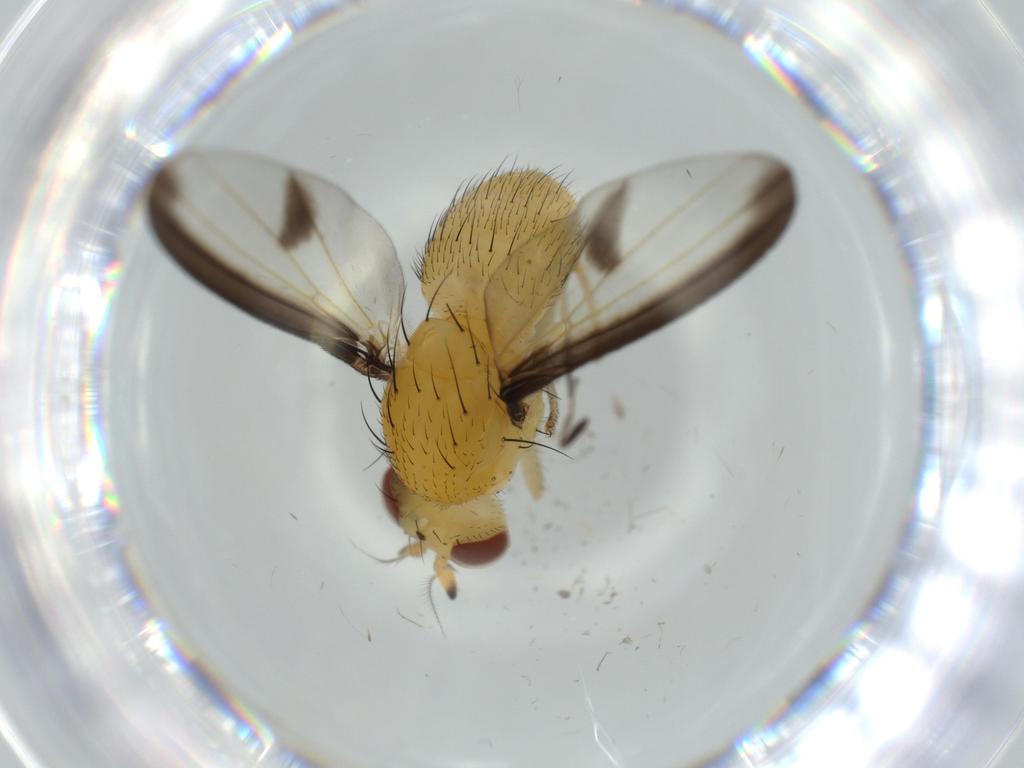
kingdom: Animalia
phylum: Arthropoda
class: Insecta
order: Diptera
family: Lauxaniidae
